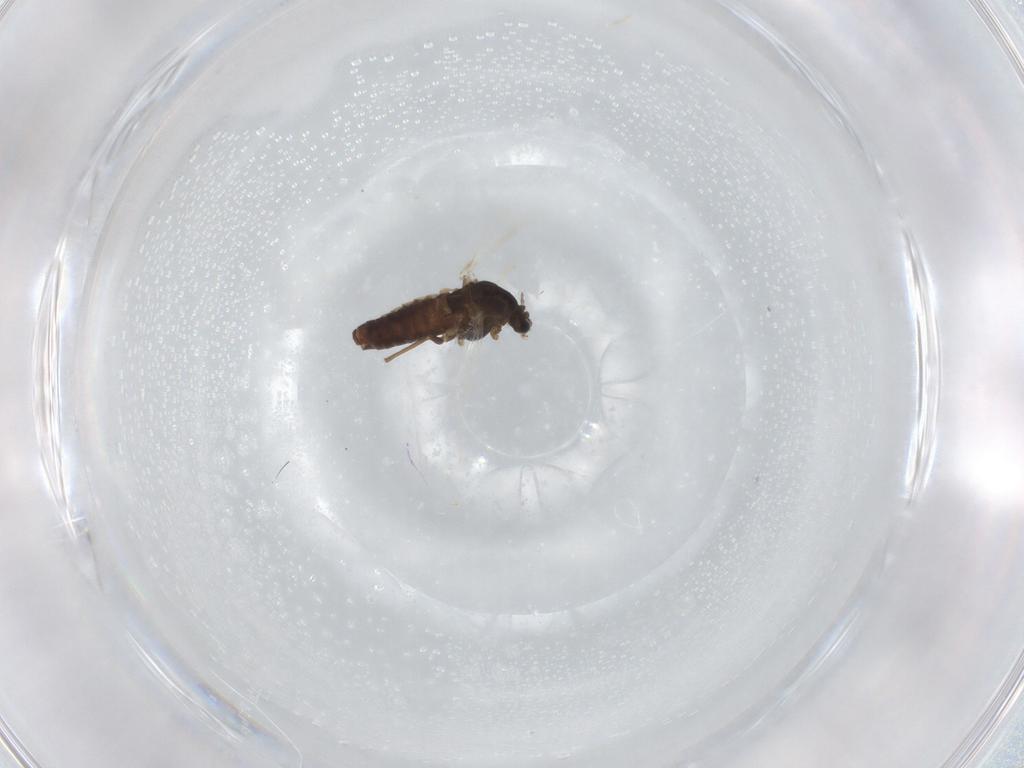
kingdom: Animalia
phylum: Arthropoda
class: Insecta
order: Diptera
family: Chironomidae
